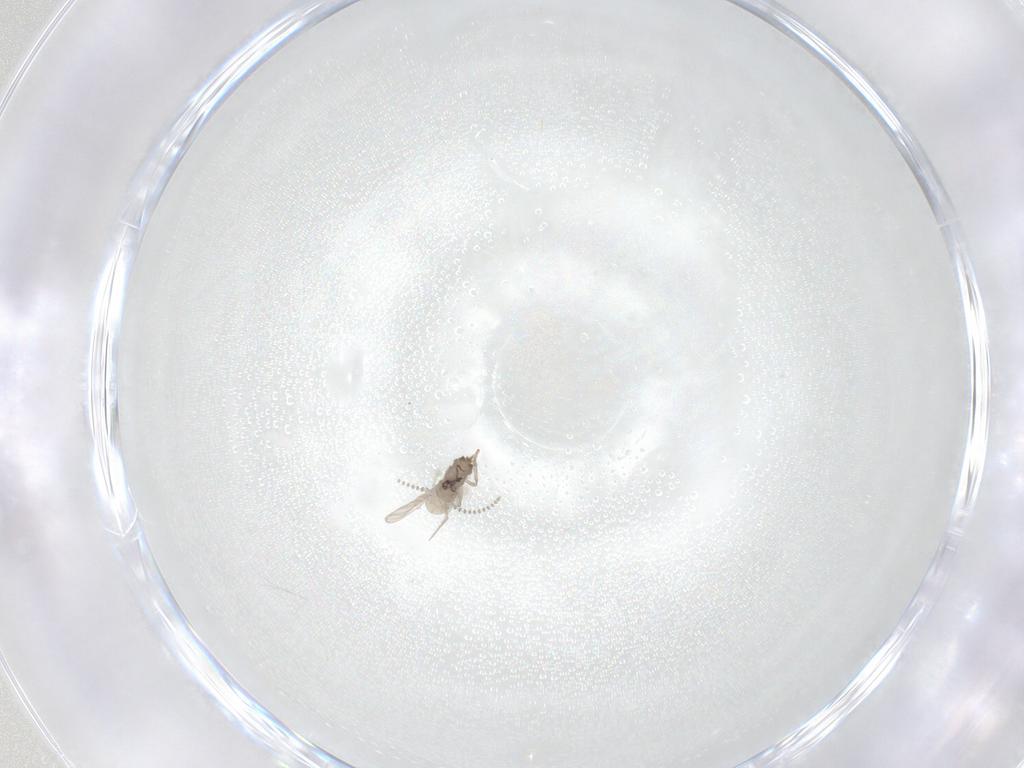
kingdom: Animalia
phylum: Arthropoda
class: Insecta
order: Diptera
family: Psychodidae
